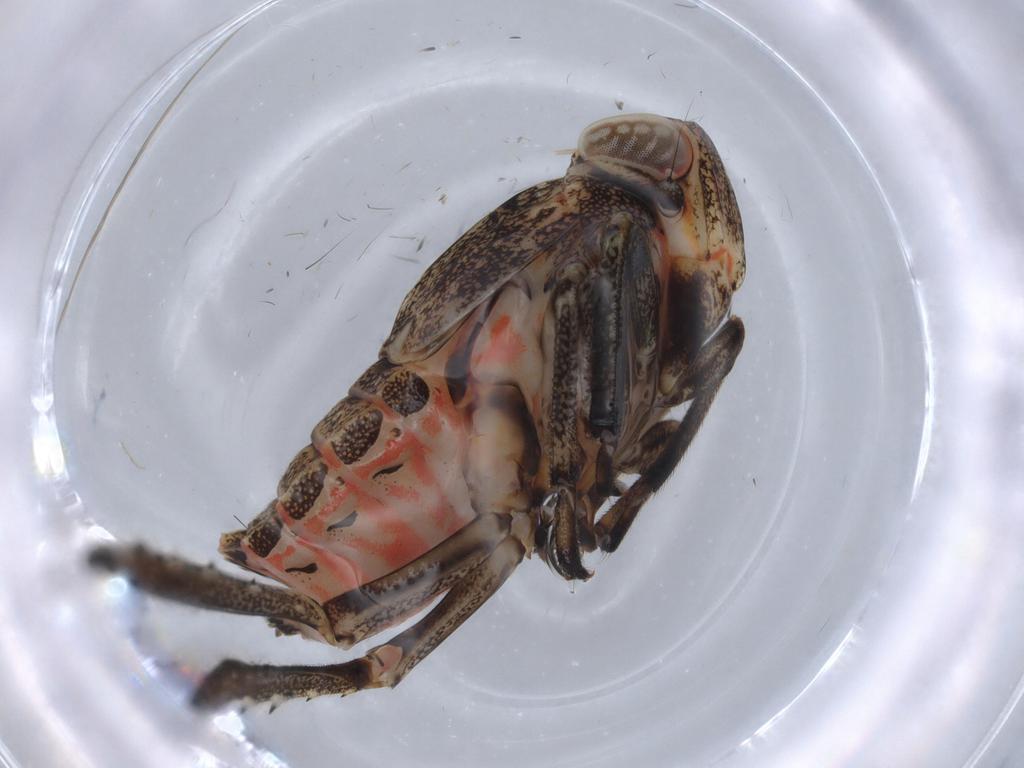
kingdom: Animalia
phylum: Arthropoda
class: Insecta
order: Hemiptera
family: Issidae
